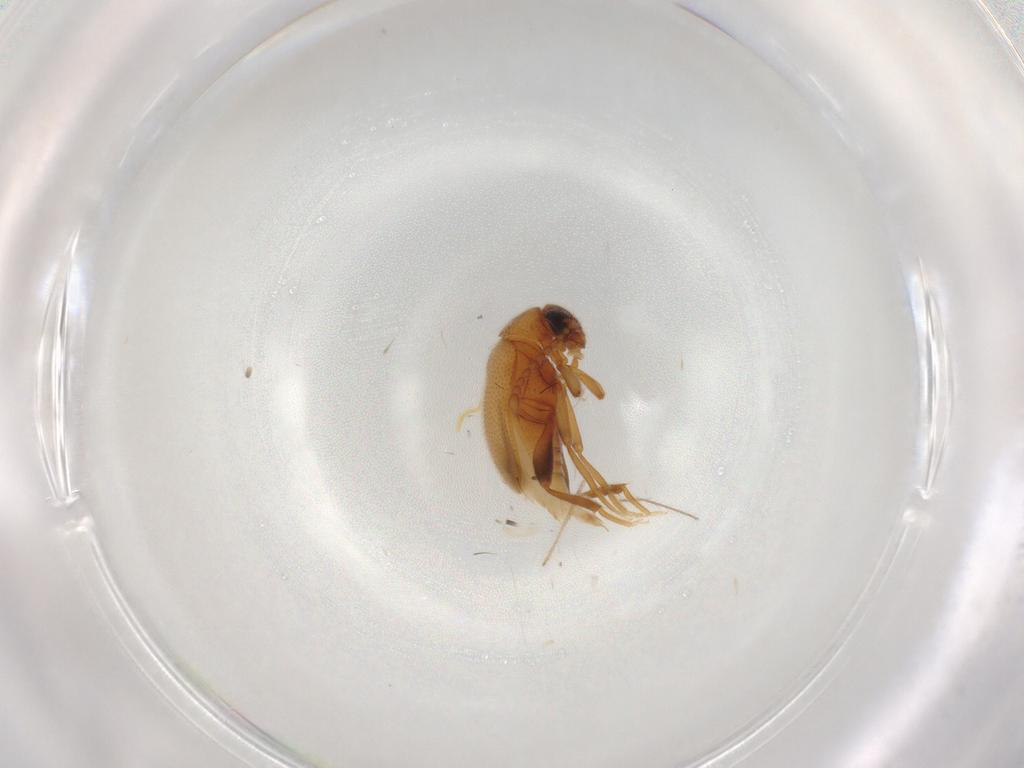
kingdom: Animalia
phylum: Arthropoda
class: Insecta
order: Coleoptera
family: Aderidae
